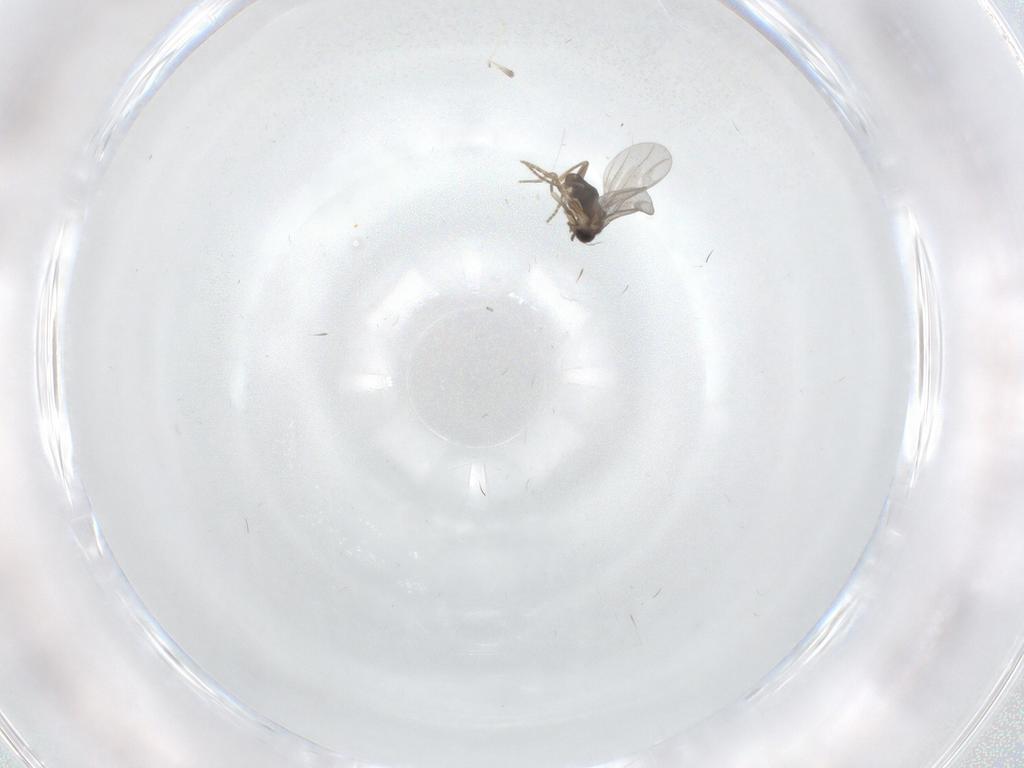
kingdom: Animalia
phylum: Arthropoda
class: Insecta
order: Diptera
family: Cecidomyiidae
